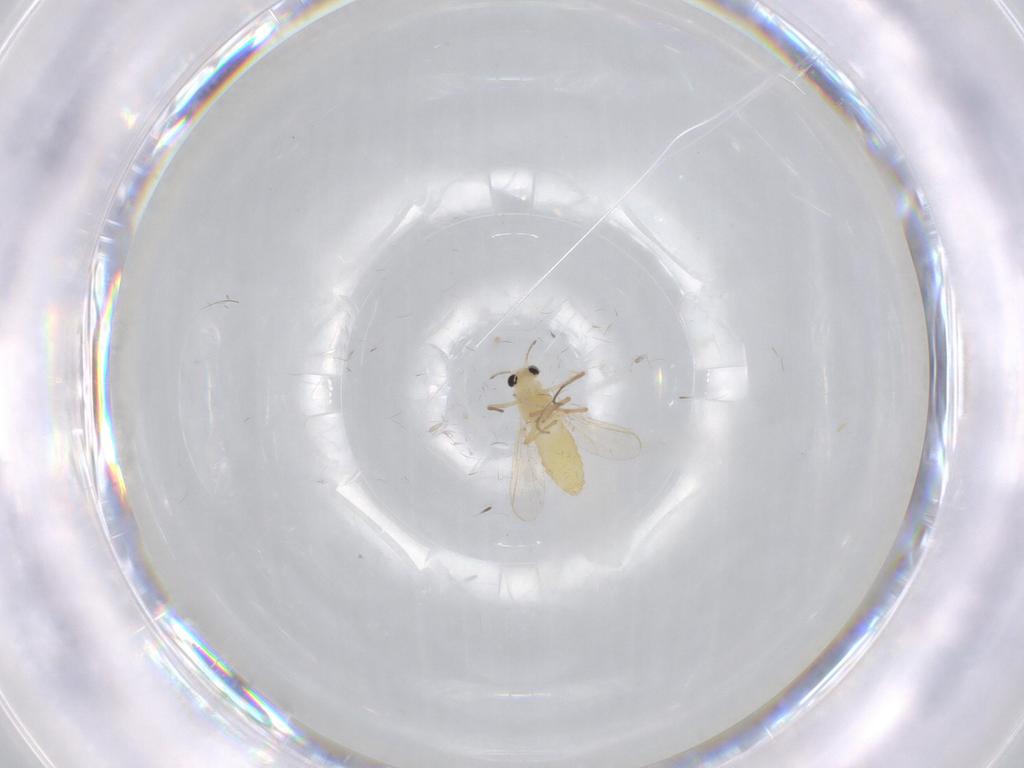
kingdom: Animalia
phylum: Arthropoda
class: Insecta
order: Diptera
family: Chironomidae
